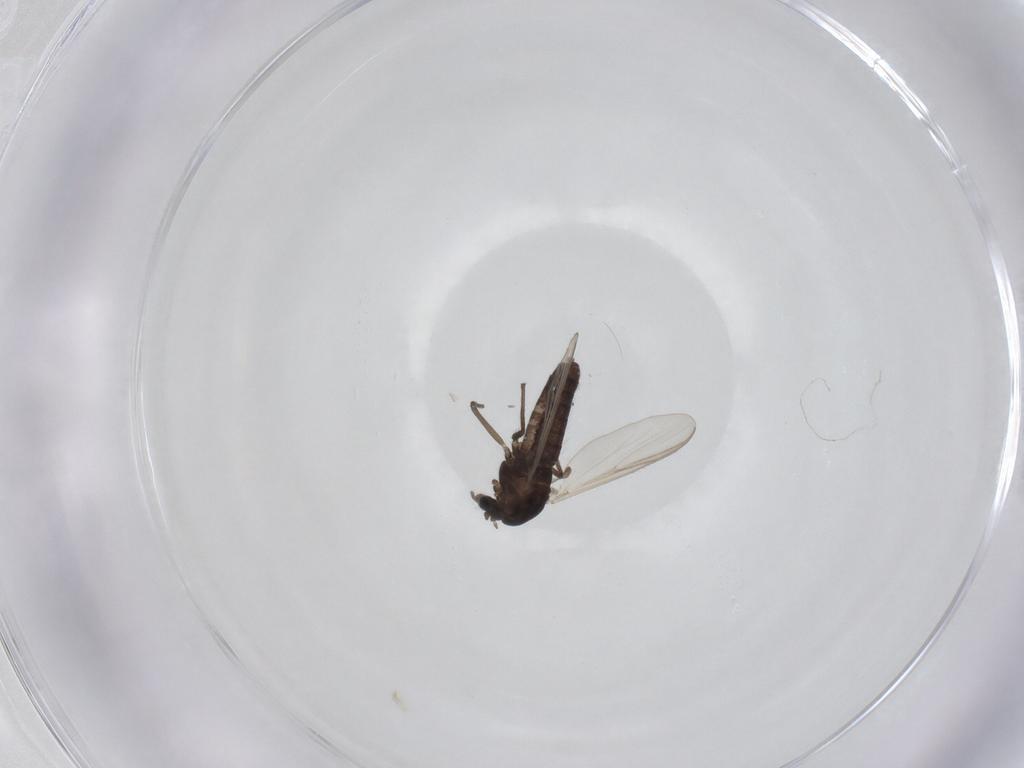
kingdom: Animalia
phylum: Arthropoda
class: Insecta
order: Diptera
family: Chironomidae
